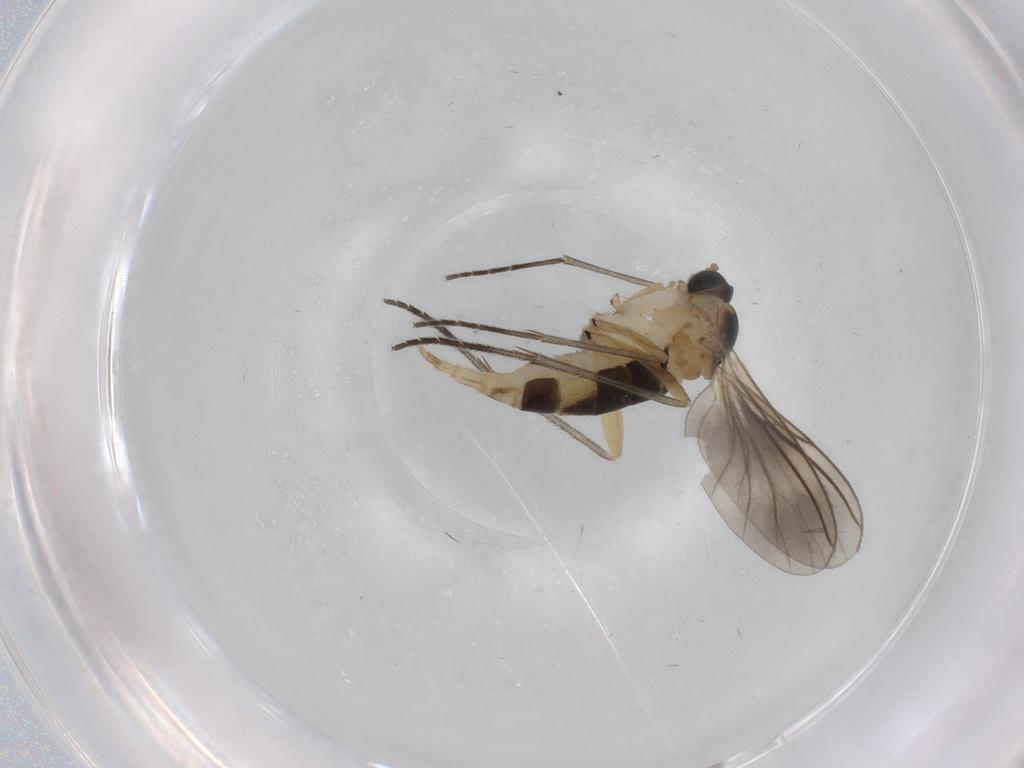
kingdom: Animalia
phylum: Arthropoda
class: Insecta
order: Diptera
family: Sciaridae
